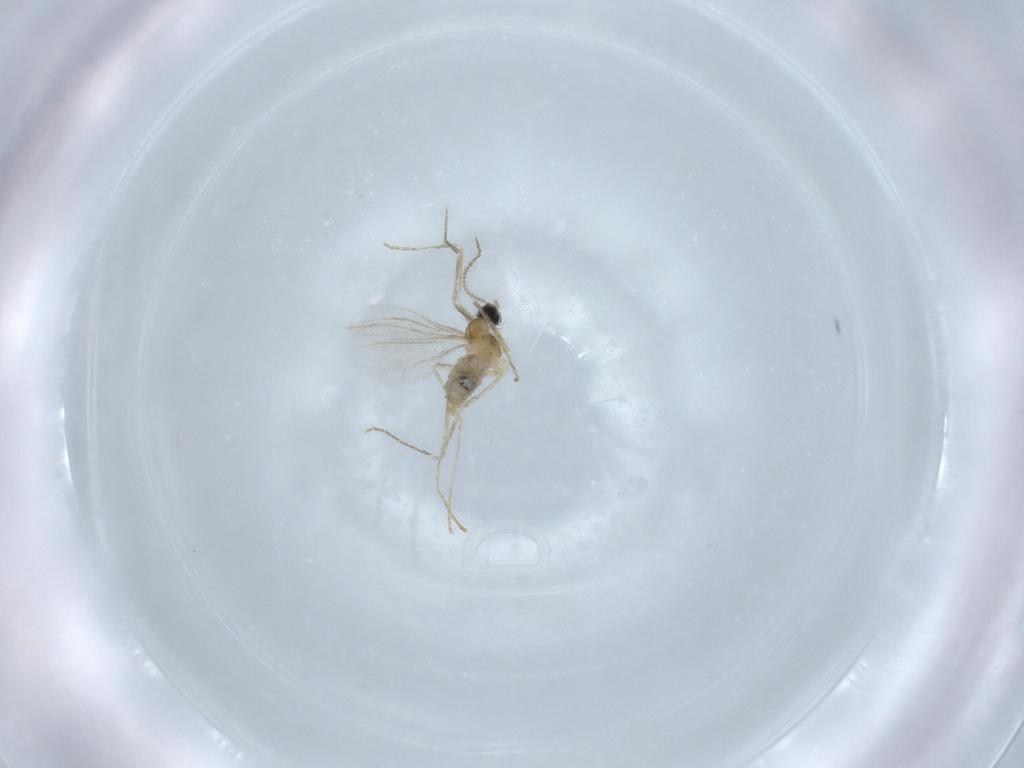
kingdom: Animalia
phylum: Arthropoda
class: Insecta
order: Diptera
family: Cecidomyiidae
